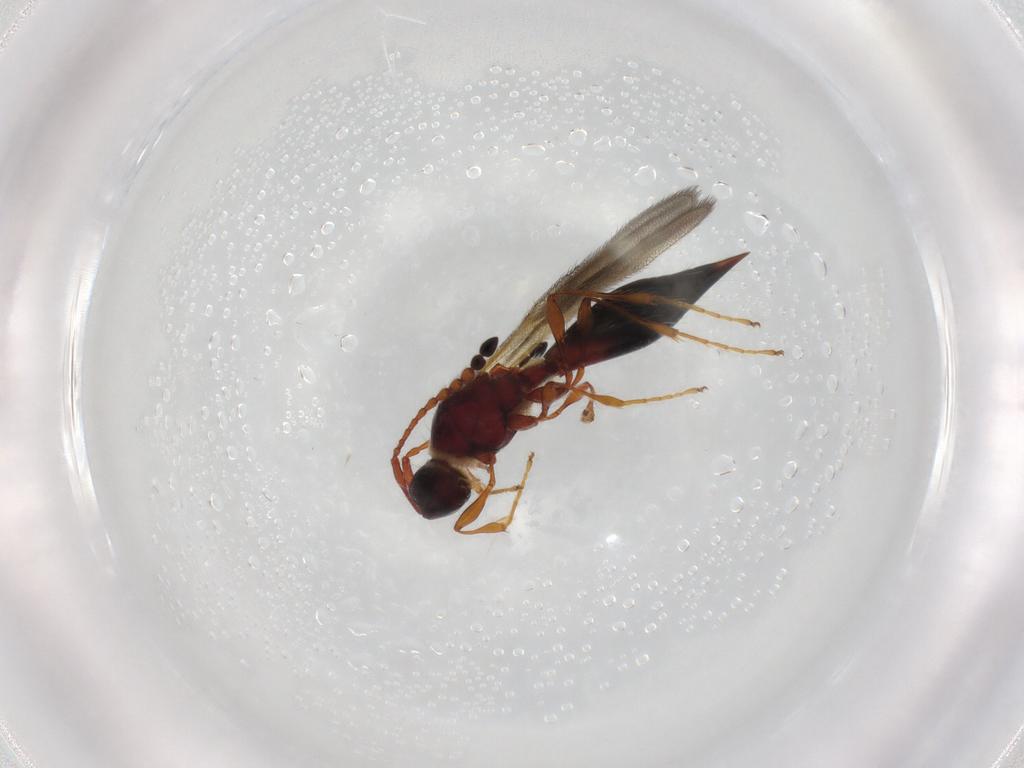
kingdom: Animalia
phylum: Arthropoda
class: Insecta
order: Hymenoptera
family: Diapriidae
